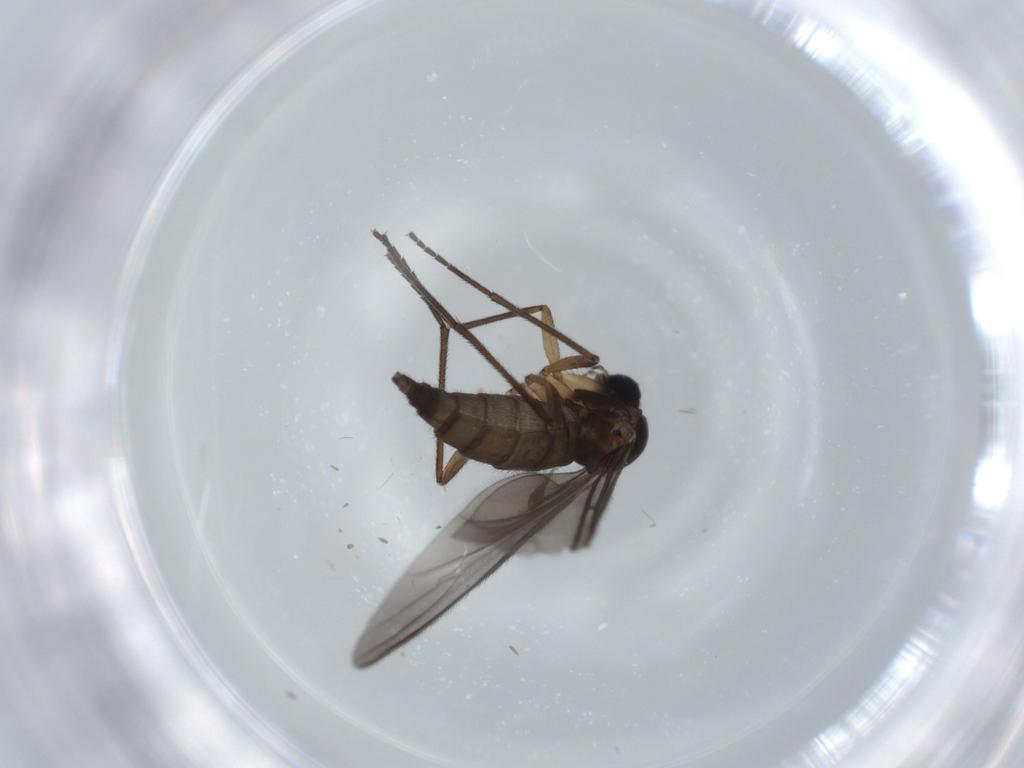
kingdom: Animalia
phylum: Arthropoda
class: Insecta
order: Diptera
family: Sciaridae
